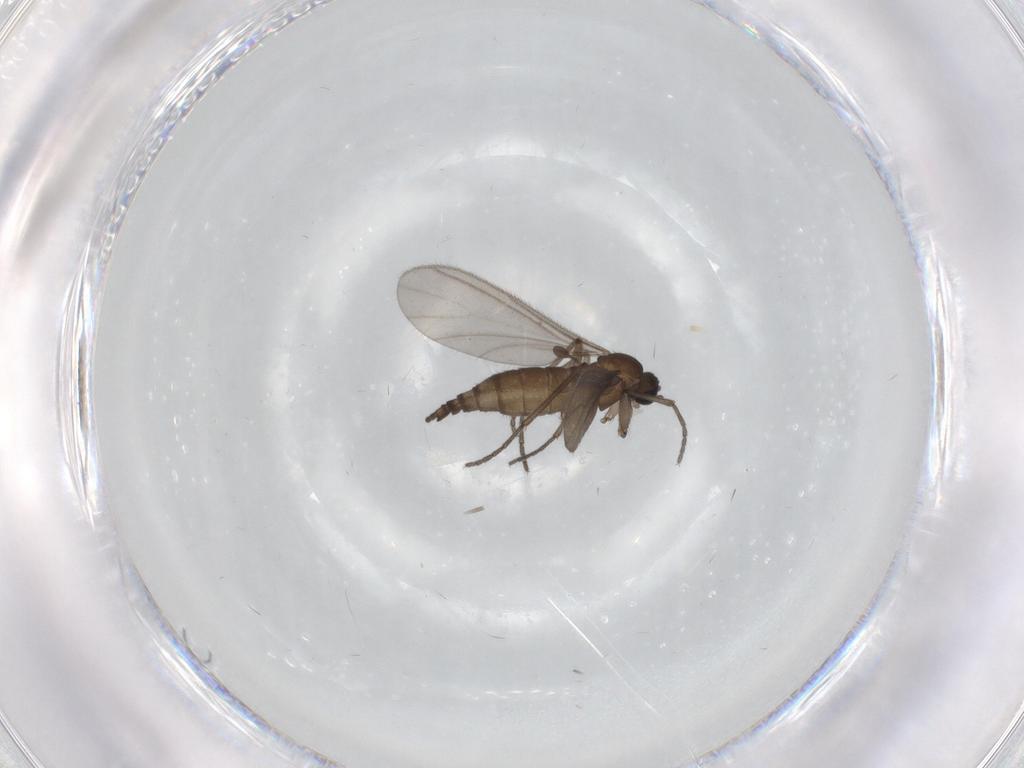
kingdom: Animalia
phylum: Arthropoda
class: Insecta
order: Diptera
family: Sciaridae
